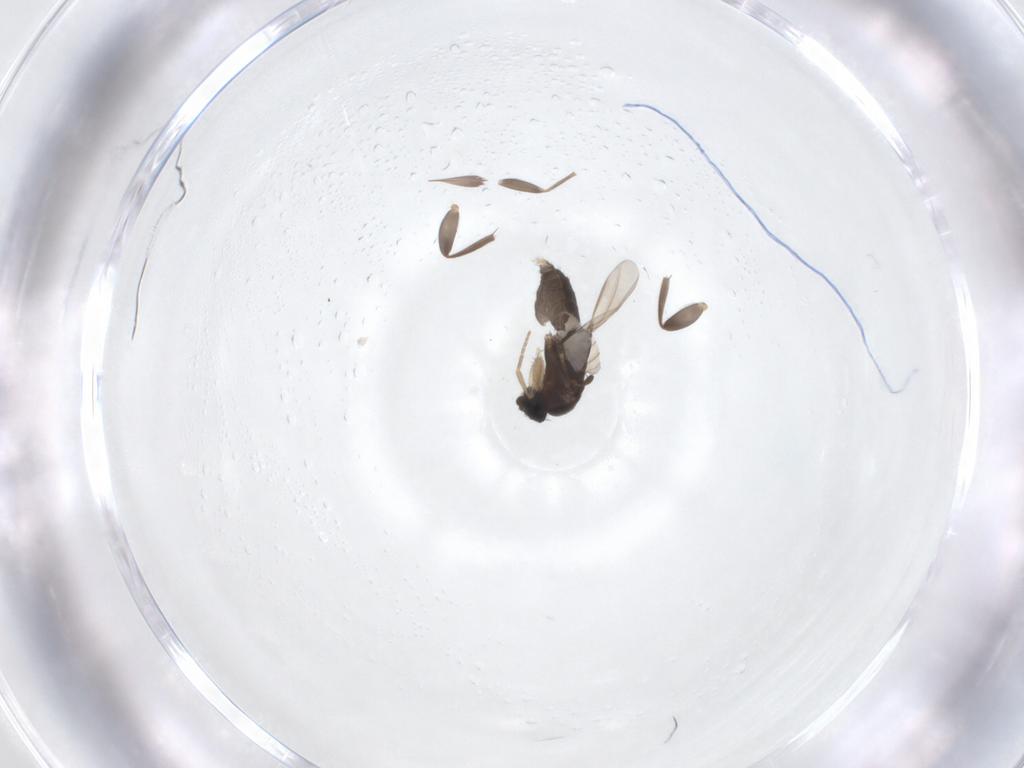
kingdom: Animalia
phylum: Arthropoda
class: Insecta
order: Diptera
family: Phoridae
